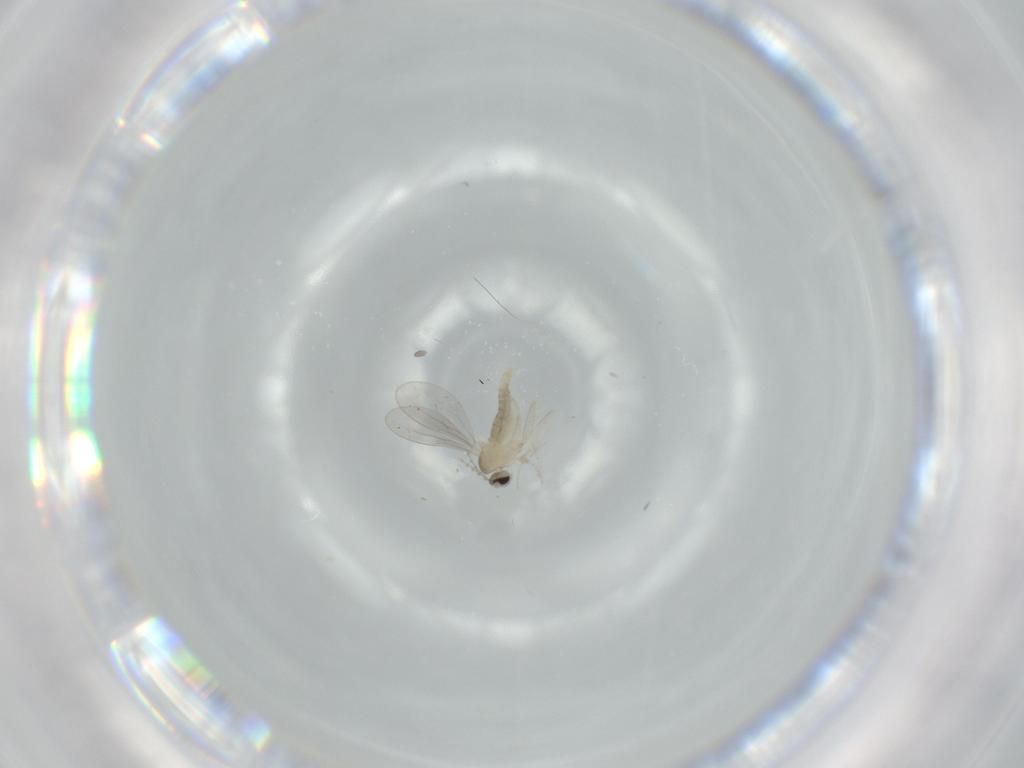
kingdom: Animalia
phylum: Arthropoda
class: Insecta
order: Diptera
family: Cecidomyiidae
